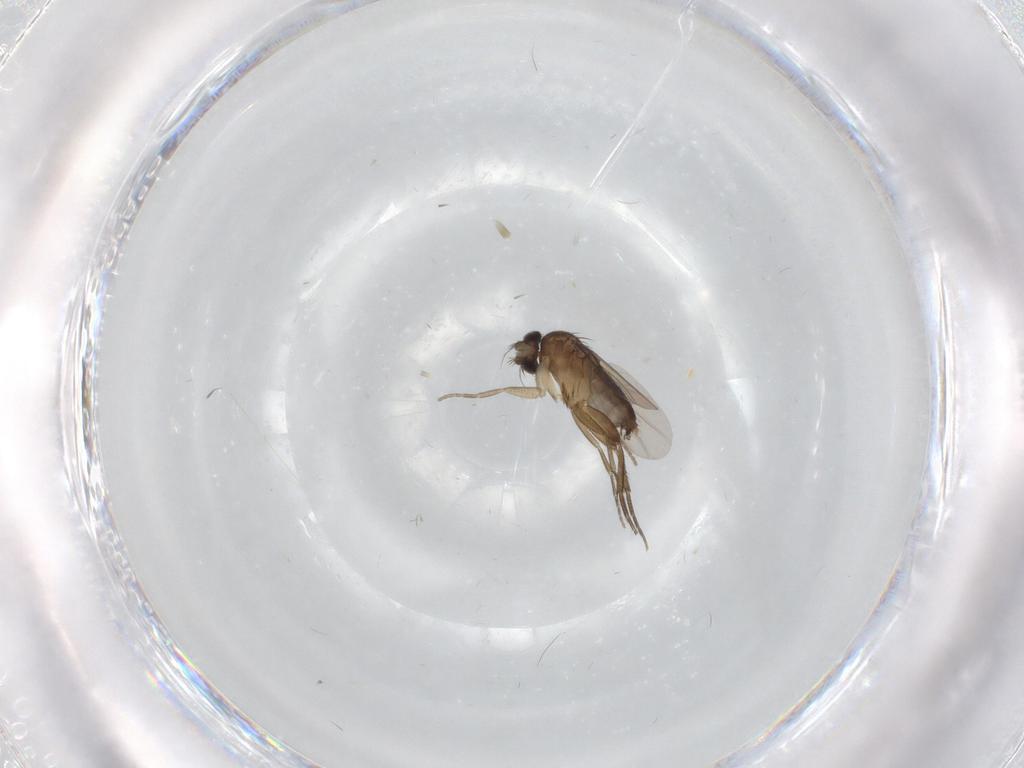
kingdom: Animalia
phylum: Arthropoda
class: Insecta
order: Diptera
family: Phoridae
